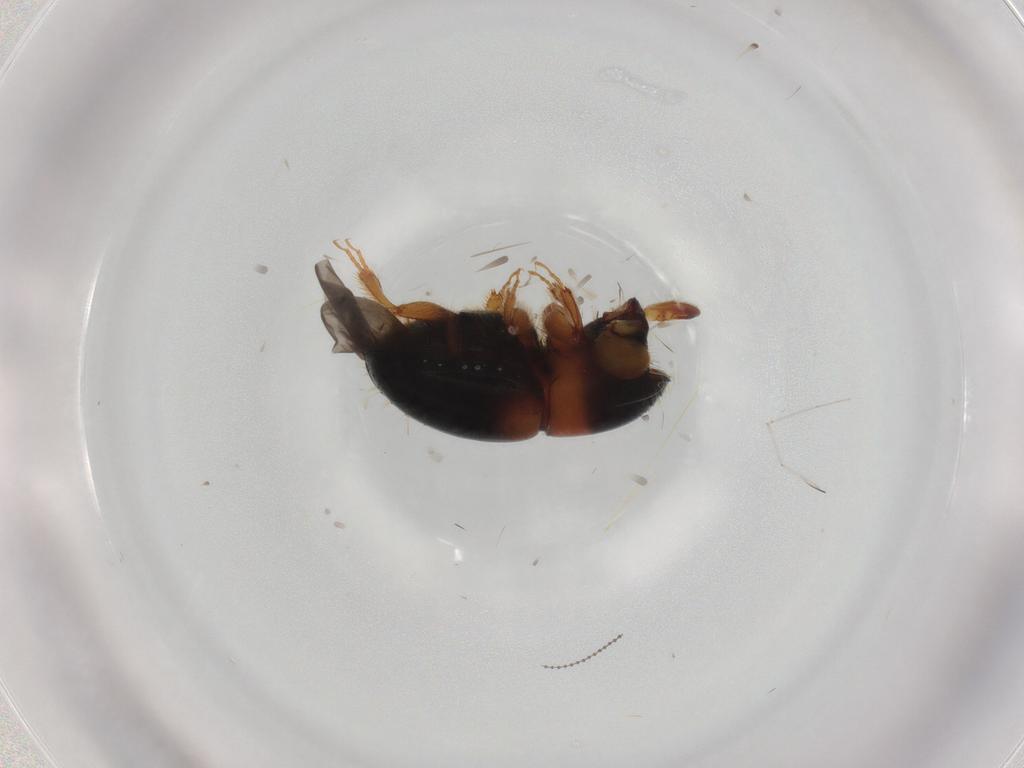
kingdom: Animalia
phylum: Arthropoda
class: Insecta
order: Coleoptera
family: Curculionidae
